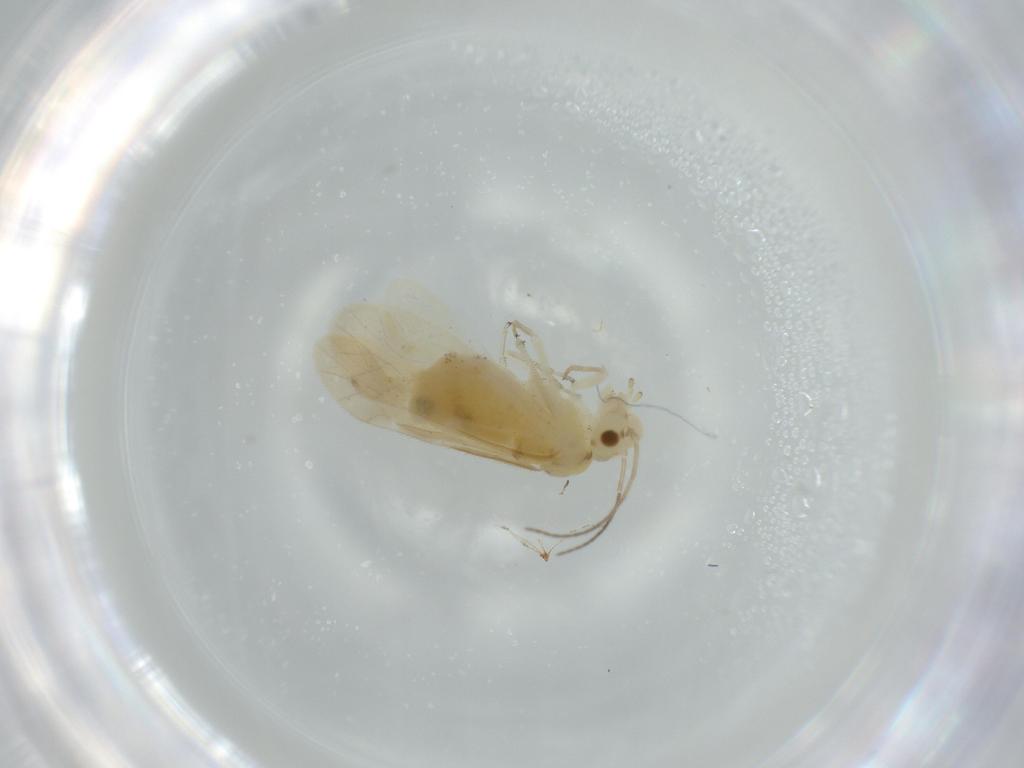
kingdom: Animalia
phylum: Arthropoda
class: Insecta
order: Psocodea
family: Caeciliusidae
